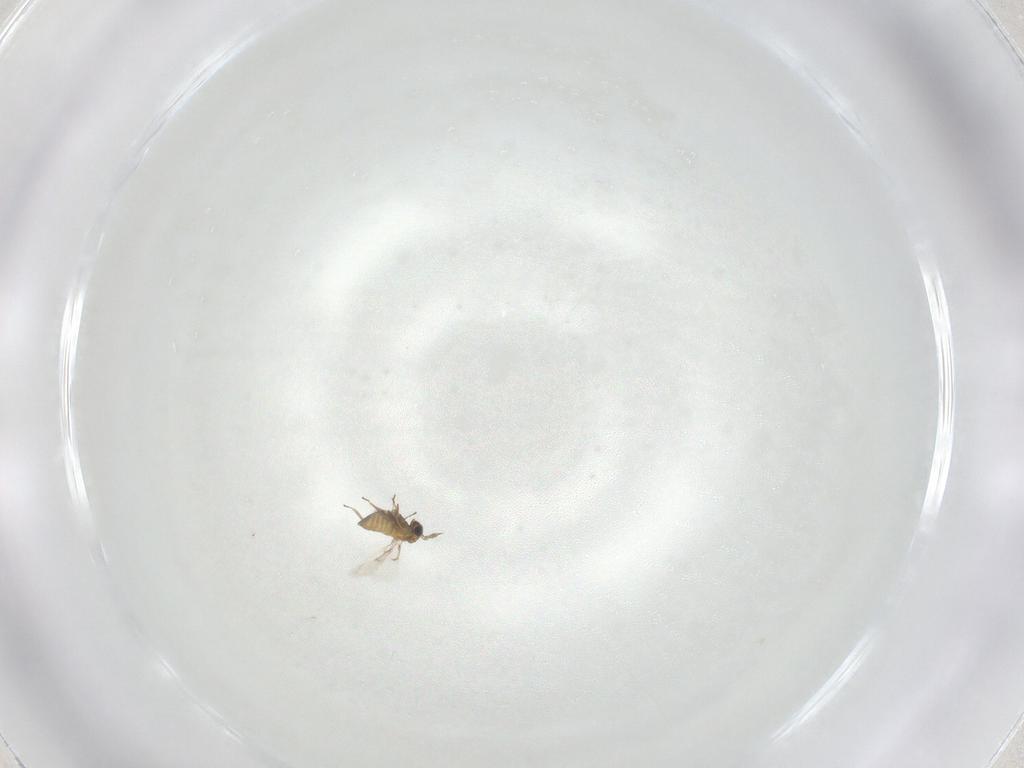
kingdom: Animalia
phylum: Arthropoda
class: Insecta
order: Hymenoptera
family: Trichogrammatidae
